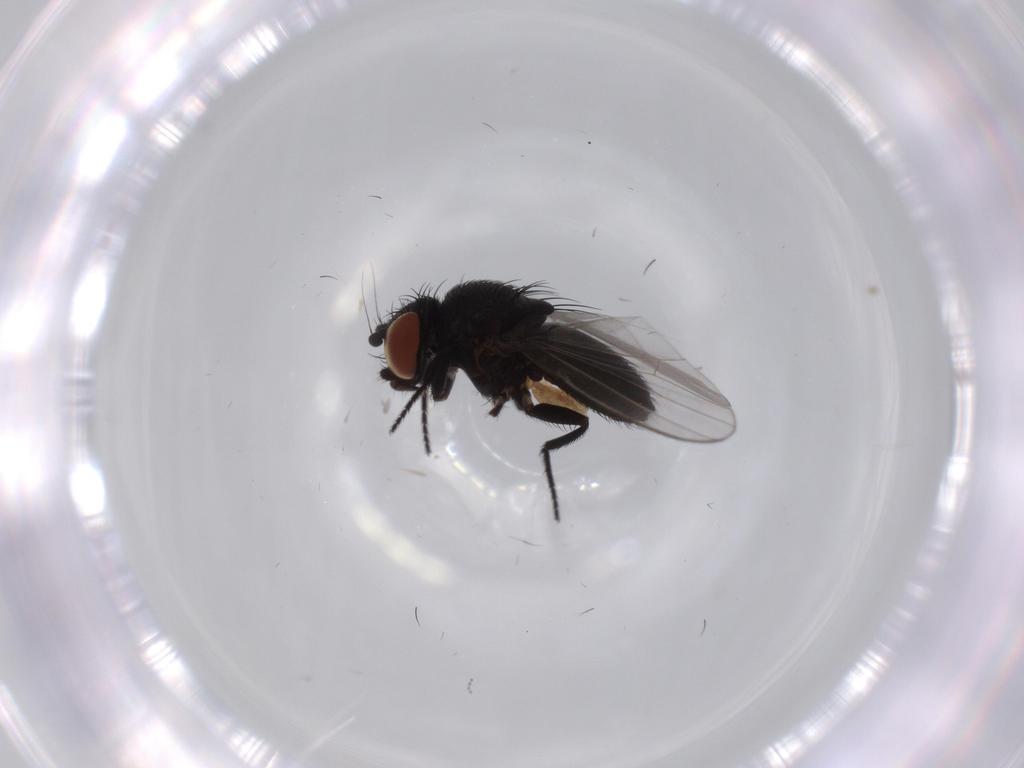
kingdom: Animalia
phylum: Arthropoda
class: Insecta
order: Diptera
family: Milichiidae
